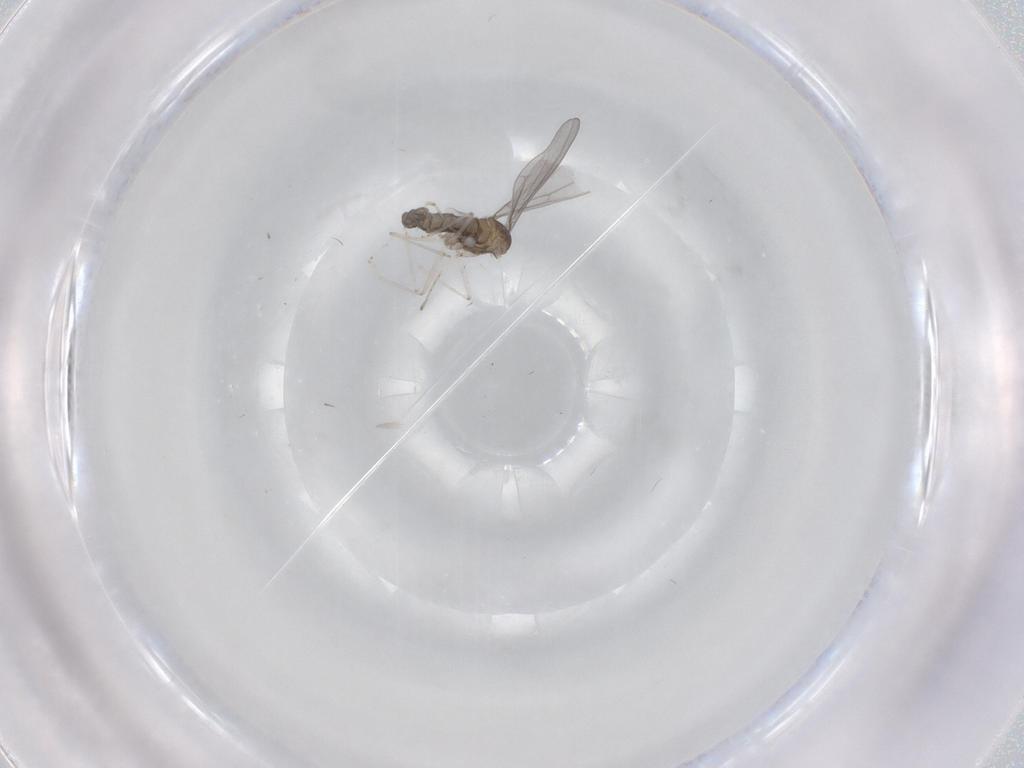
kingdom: Animalia
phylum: Arthropoda
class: Insecta
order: Diptera
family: Cecidomyiidae
